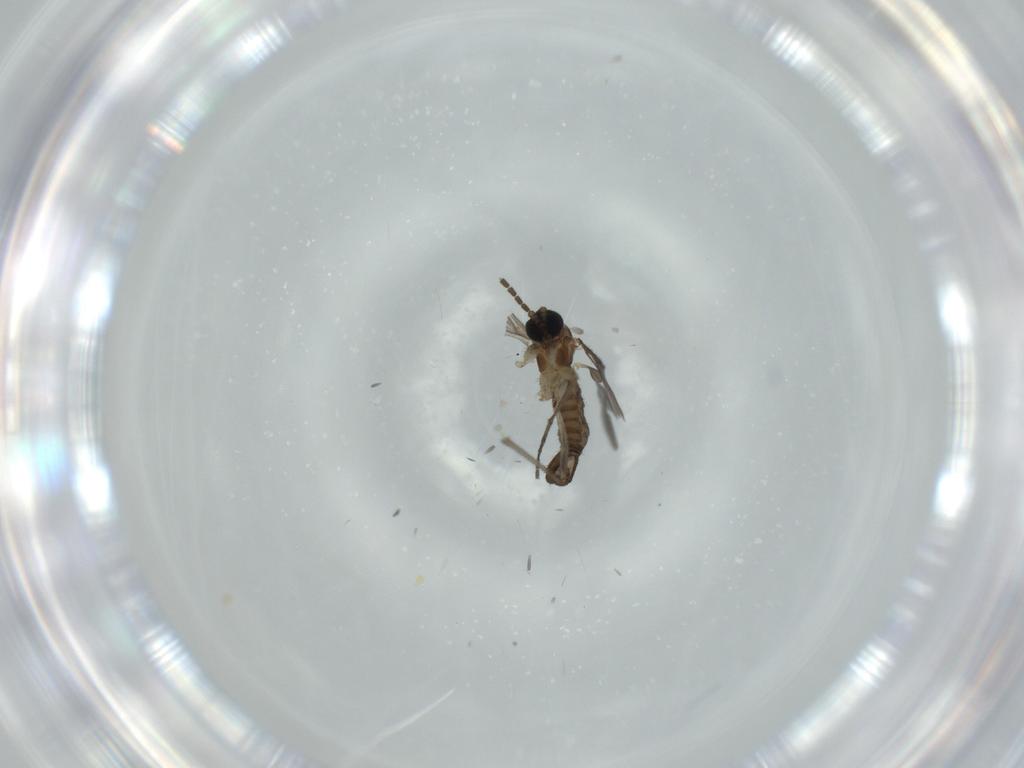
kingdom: Animalia
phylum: Arthropoda
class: Insecta
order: Diptera
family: Sciaridae
